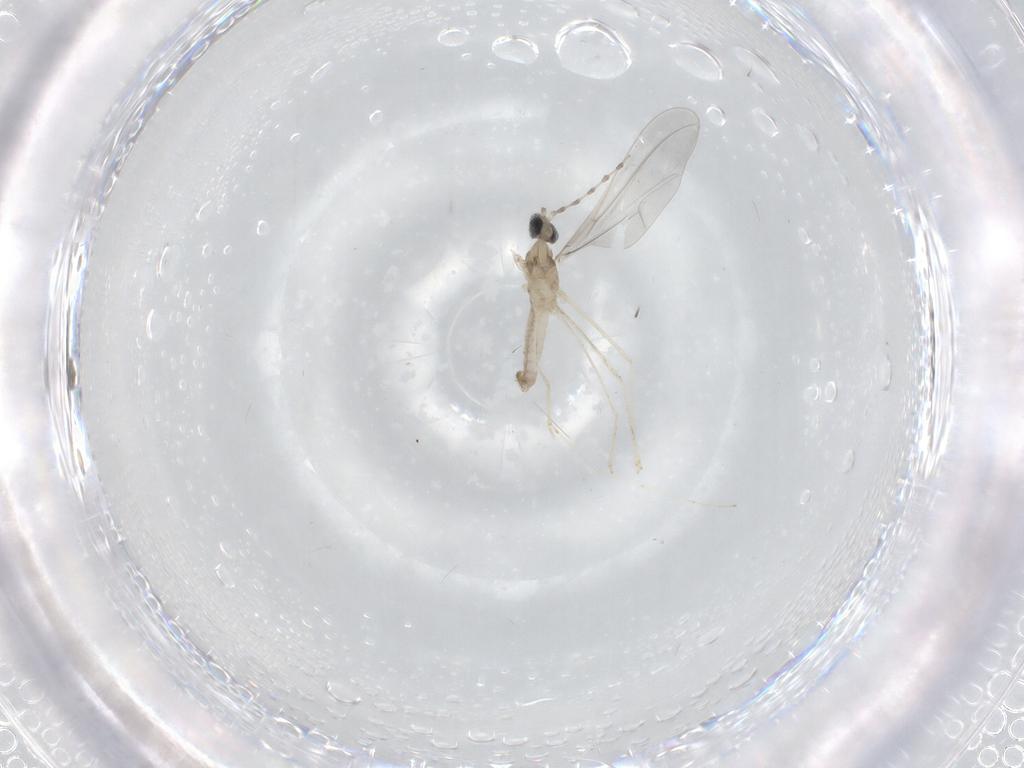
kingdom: Animalia
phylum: Arthropoda
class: Insecta
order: Diptera
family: Cecidomyiidae
